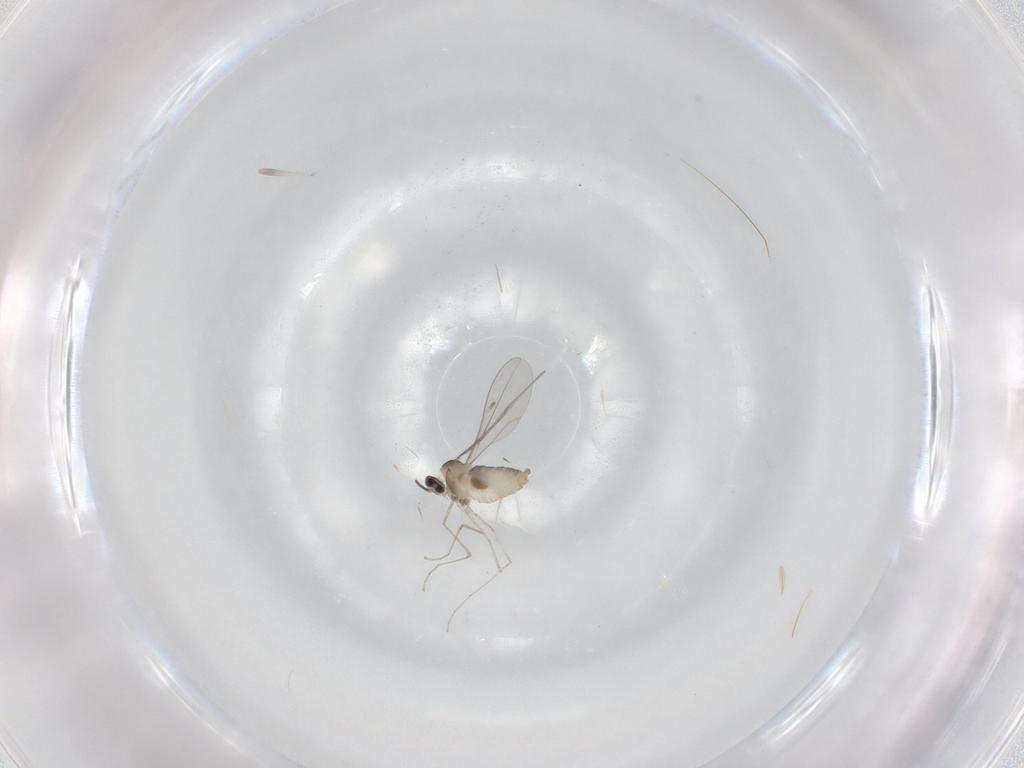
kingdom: Animalia
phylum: Arthropoda
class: Insecta
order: Diptera
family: Cecidomyiidae
